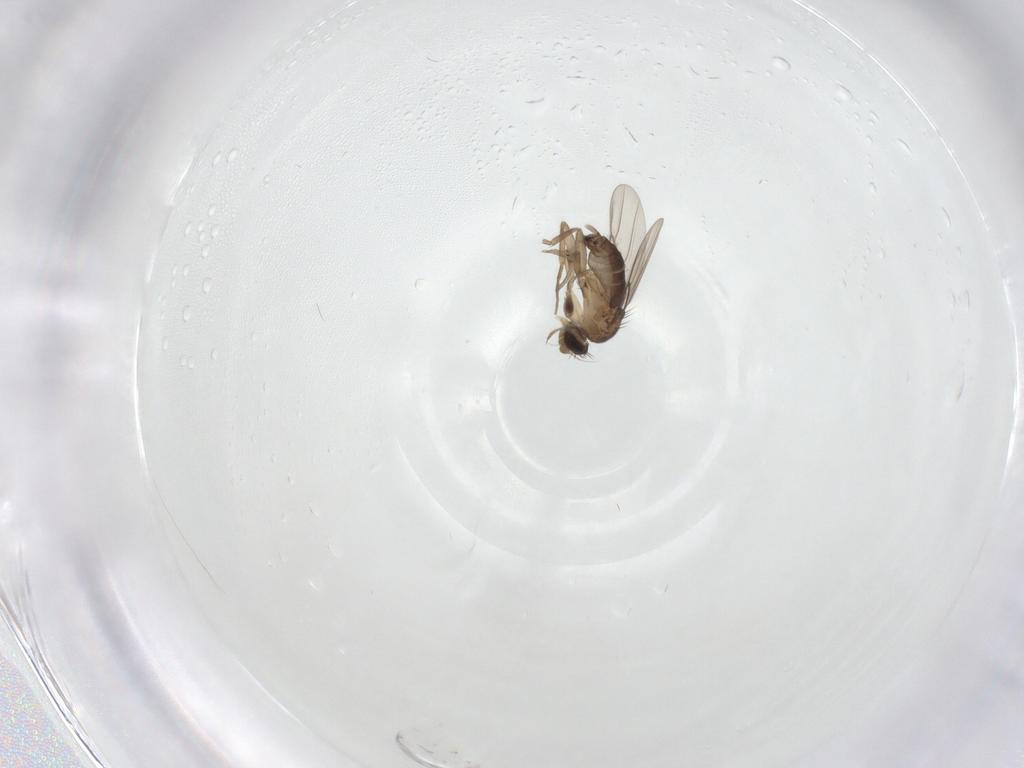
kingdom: Animalia
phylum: Arthropoda
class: Insecta
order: Diptera
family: Phoridae
